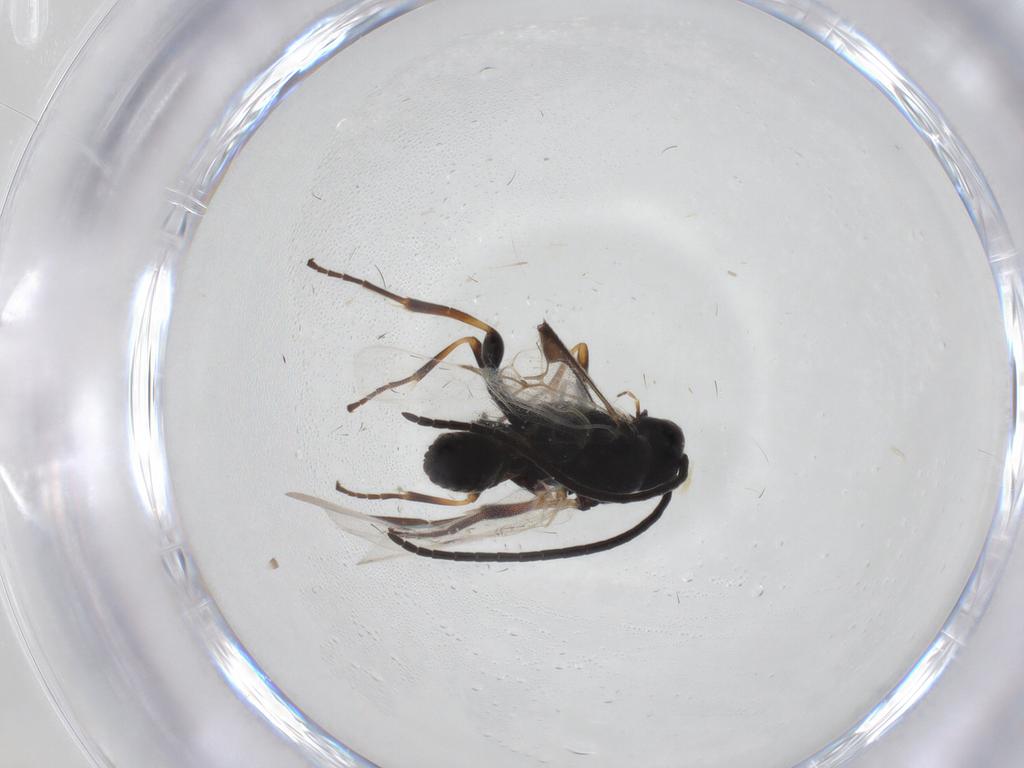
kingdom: Animalia
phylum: Arthropoda
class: Insecta
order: Hymenoptera
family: Braconidae
